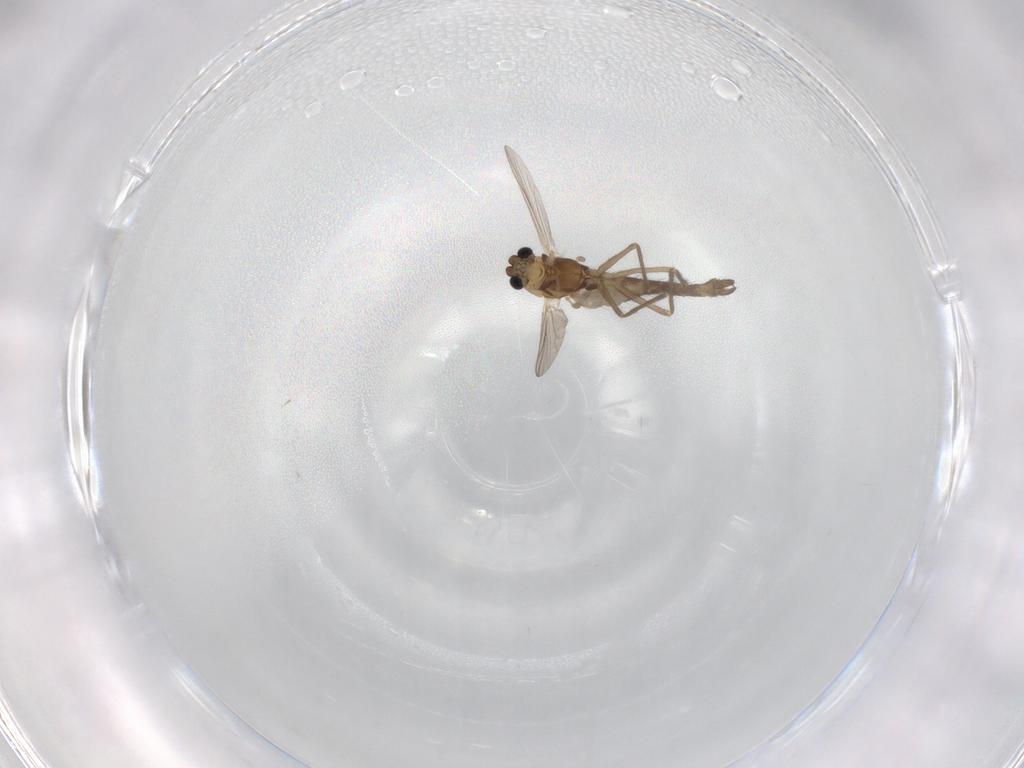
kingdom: Animalia
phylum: Arthropoda
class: Insecta
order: Diptera
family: Chironomidae
